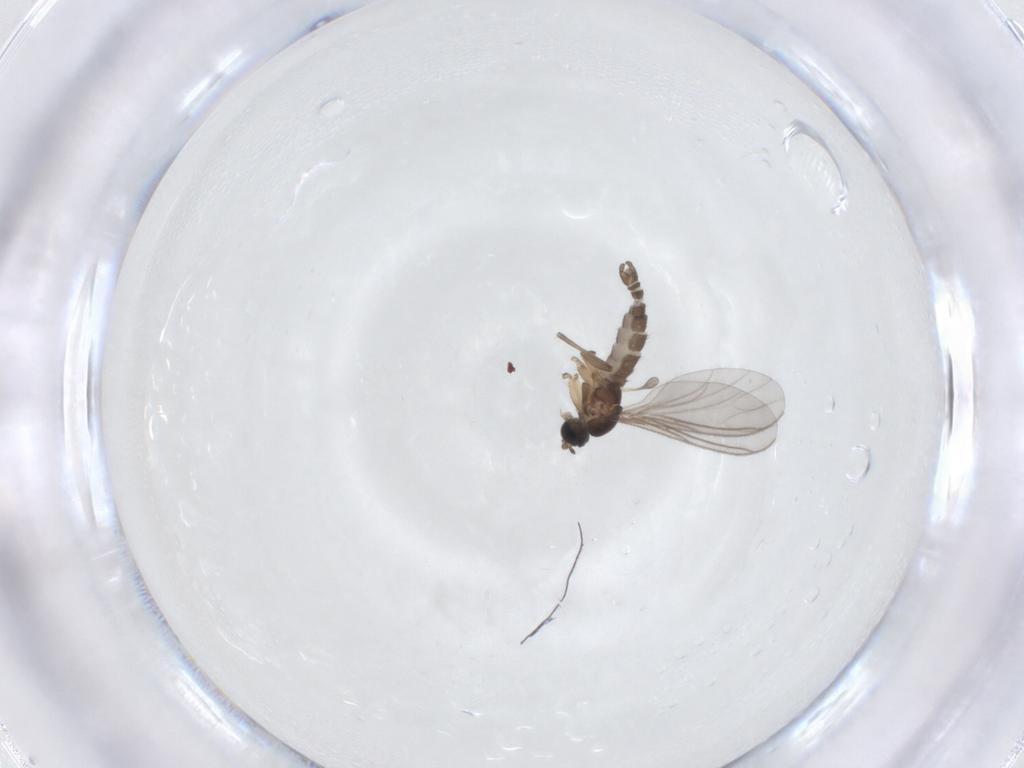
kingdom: Animalia
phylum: Arthropoda
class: Insecta
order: Diptera
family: Sciaridae
